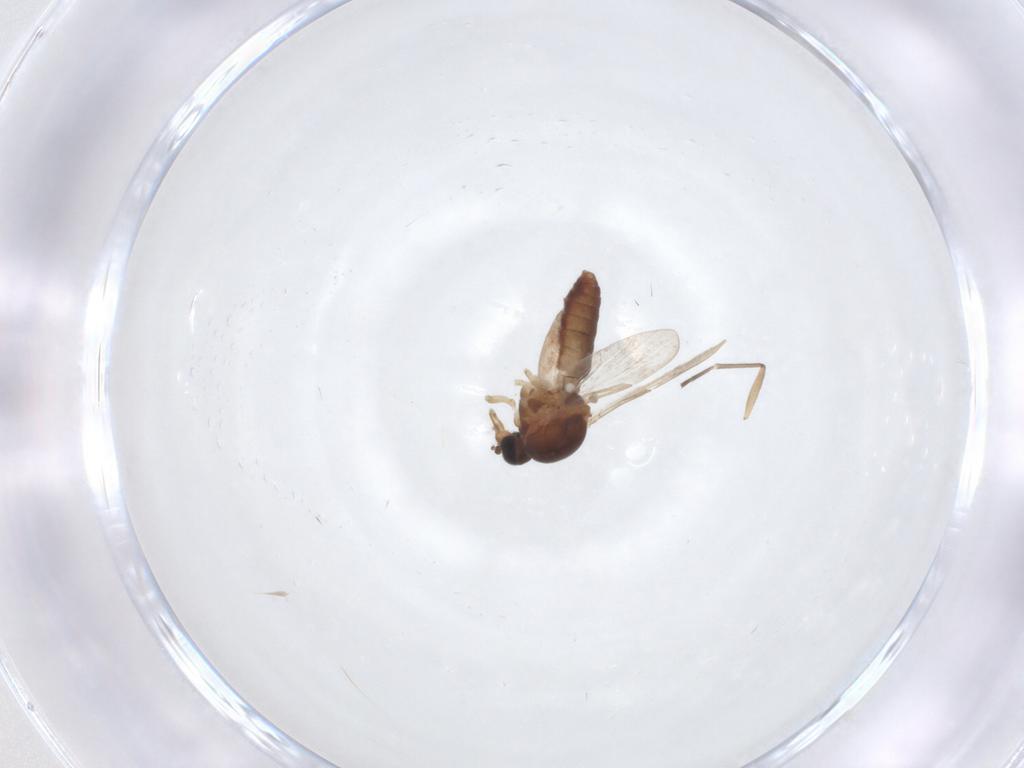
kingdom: Animalia
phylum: Arthropoda
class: Insecta
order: Diptera
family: Ceratopogonidae
